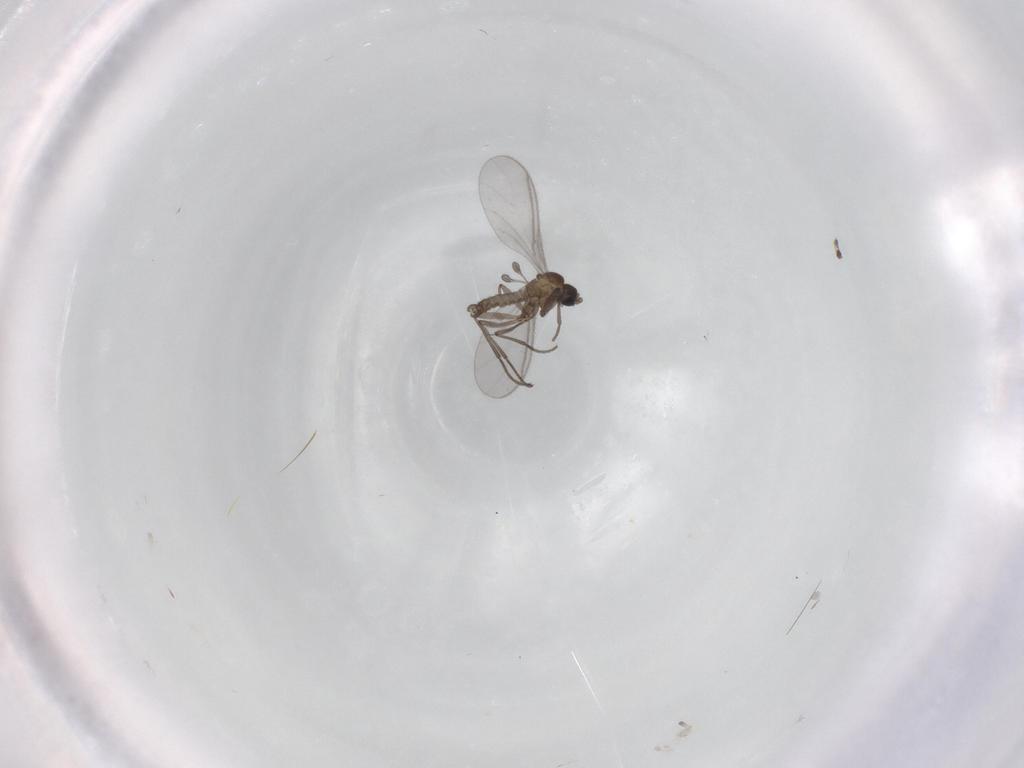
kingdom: Animalia
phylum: Arthropoda
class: Insecta
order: Diptera
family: Sciaridae
